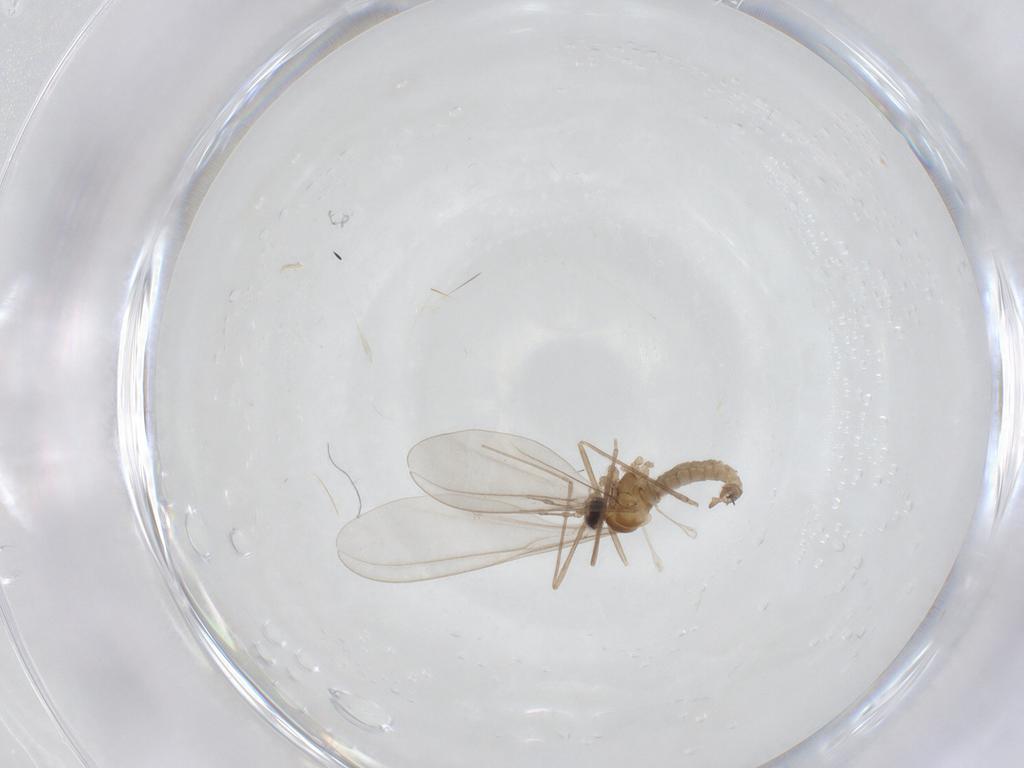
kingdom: Animalia
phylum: Arthropoda
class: Insecta
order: Diptera
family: Cecidomyiidae
